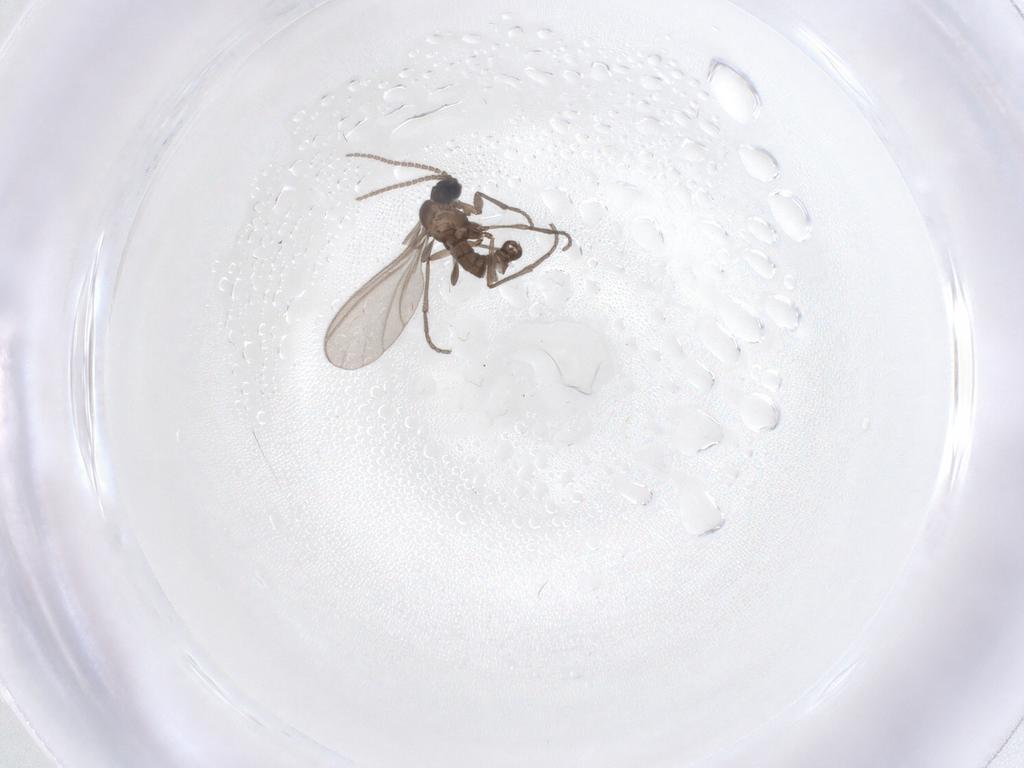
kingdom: Animalia
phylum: Arthropoda
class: Insecta
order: Diptera
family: Sciaridae
